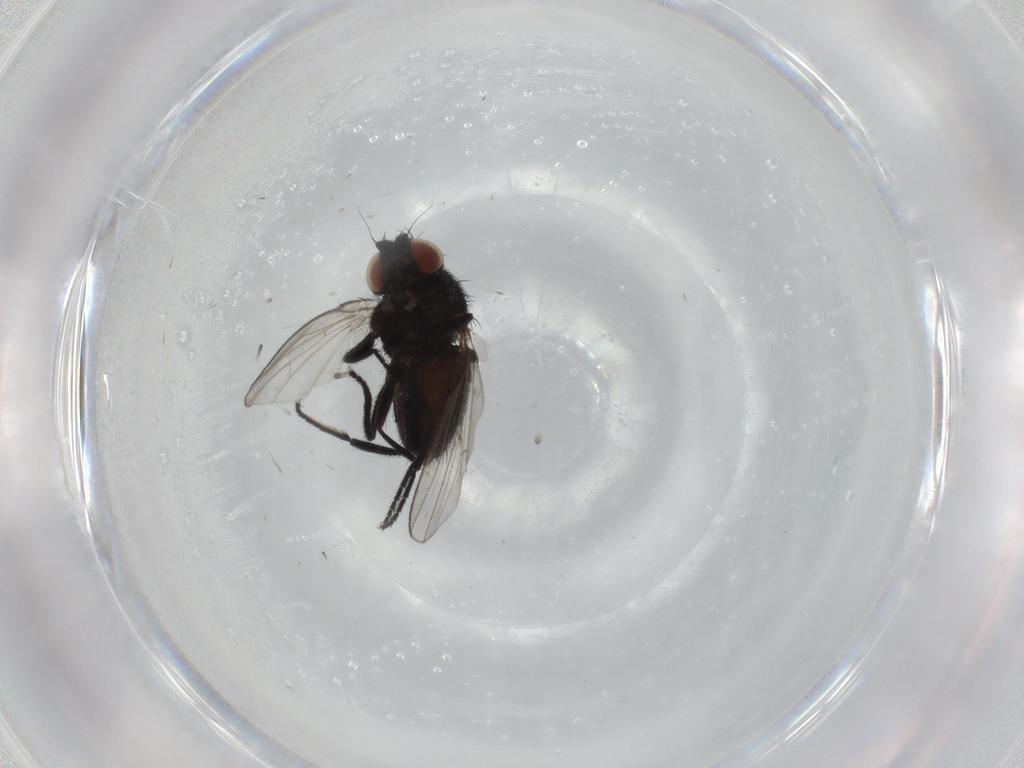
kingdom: Animalia
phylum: Arthropoda
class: Insecta
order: Diptera
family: Milichiidae
